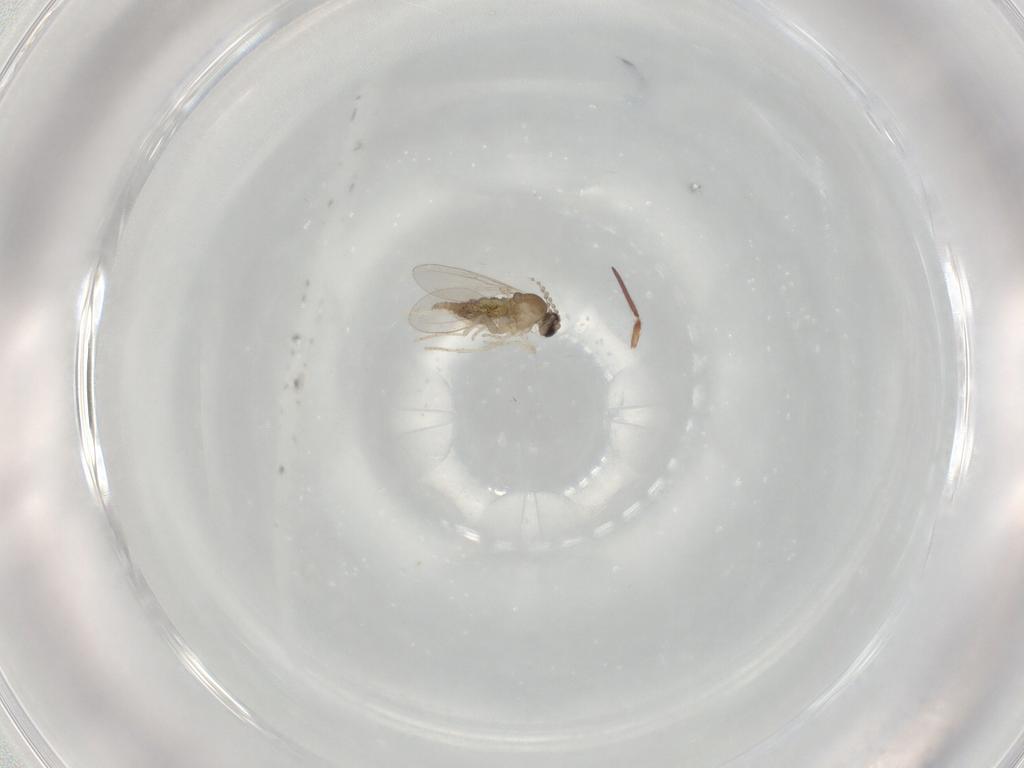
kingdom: Animalia
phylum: Arthropoda
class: Insecta
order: Diptera
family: Cecidomyiidae
